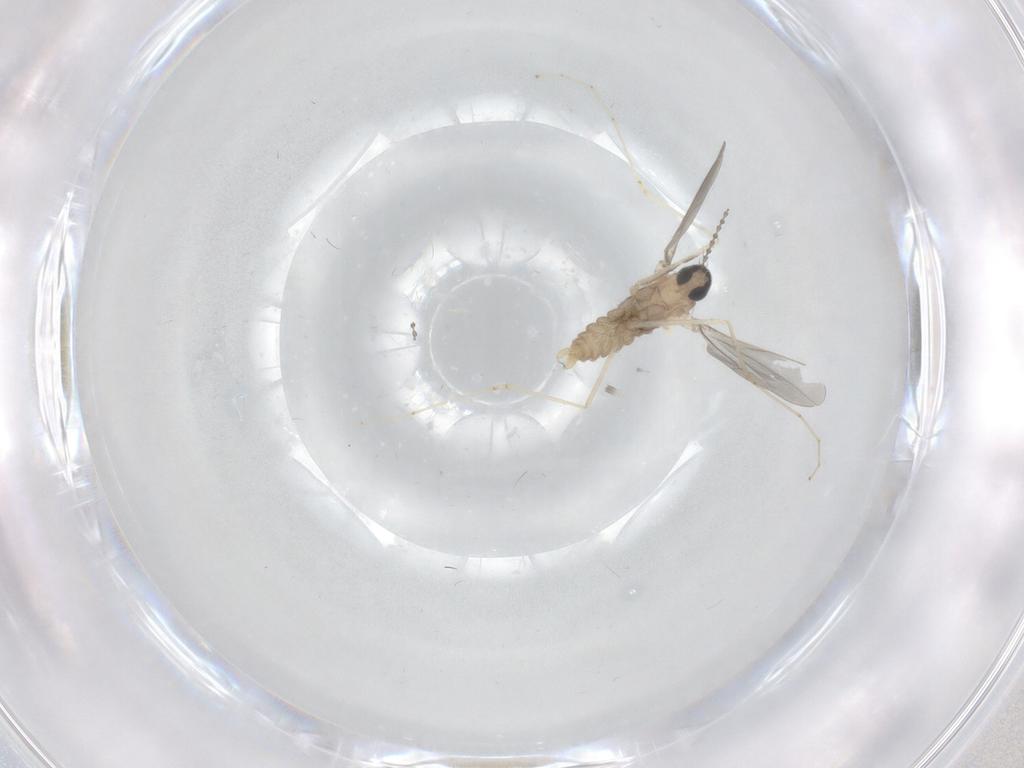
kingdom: Animalia
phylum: Arthropoda
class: Insecta
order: Diptera
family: Cecidomyiidae
